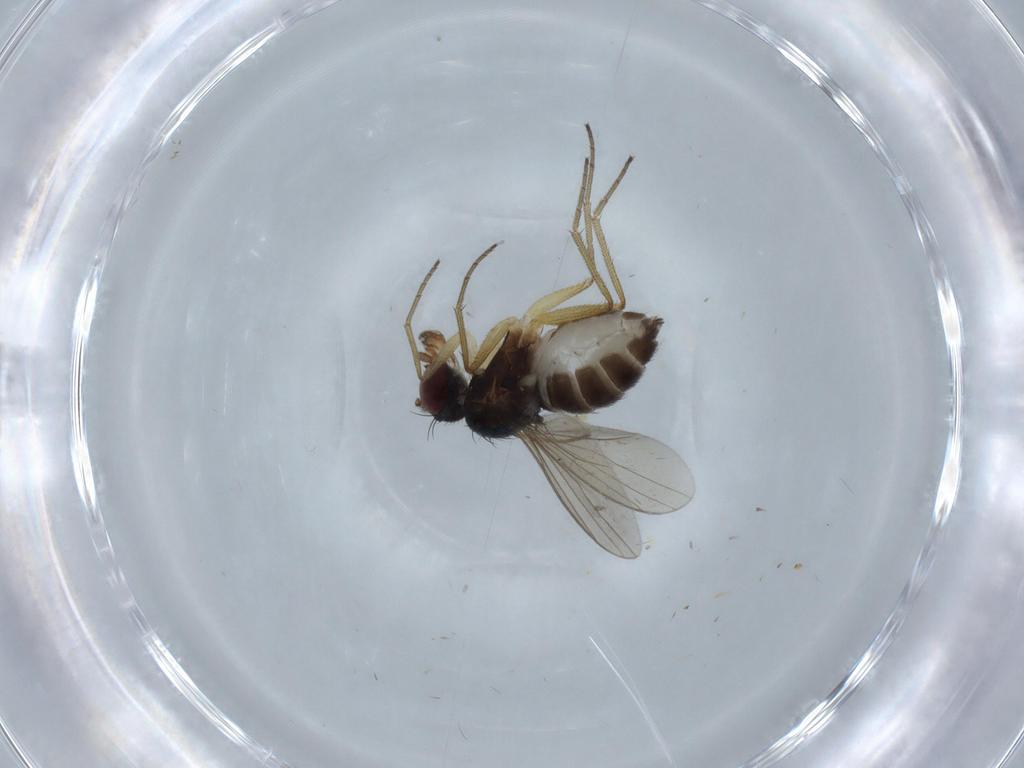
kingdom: Animalia
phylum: Arthropoda
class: Insecta
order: Diptera
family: Dolichopodidae
